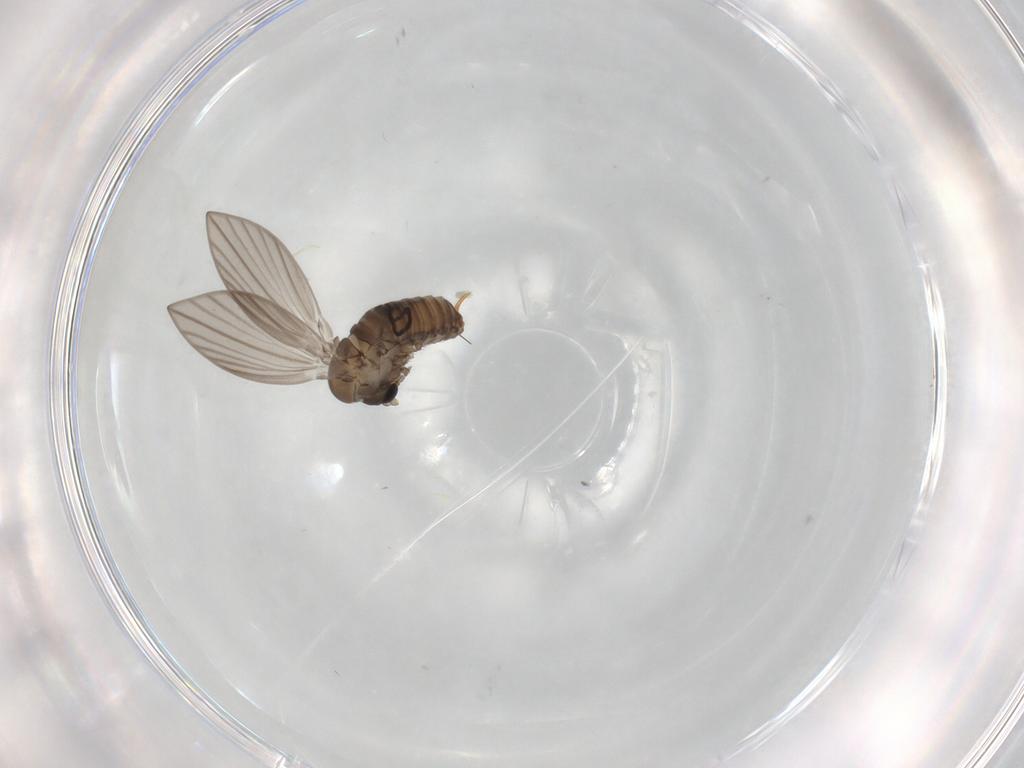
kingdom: Animalia
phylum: Arthropoda
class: Insecta
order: Diptera
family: Psychodidae
